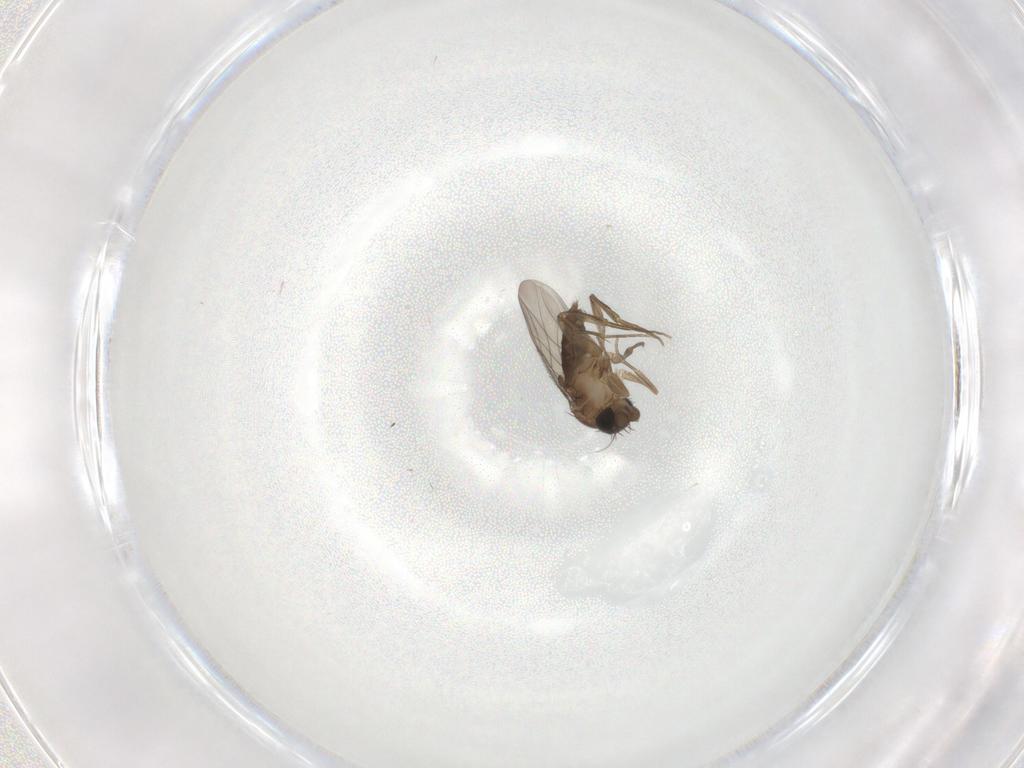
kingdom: Animalia
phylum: Arthropoda
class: Insecta
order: Diptera
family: Phoridae
